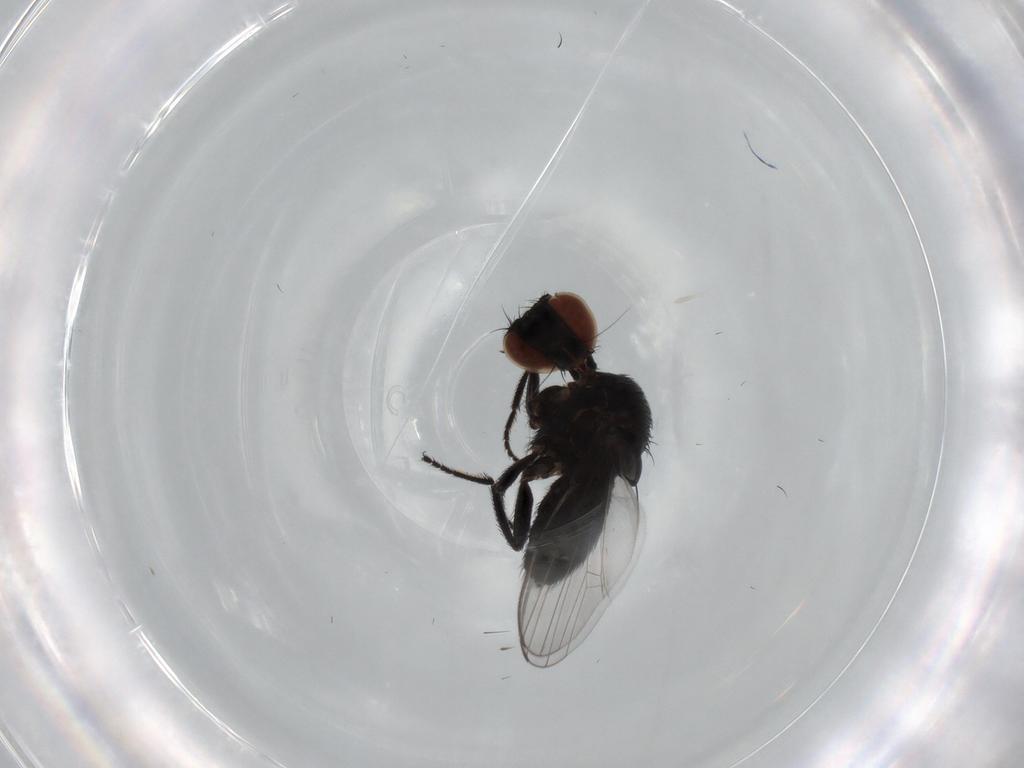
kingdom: Animalia
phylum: Arthropoda
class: Insecta
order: Diptera
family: Milichiidae
